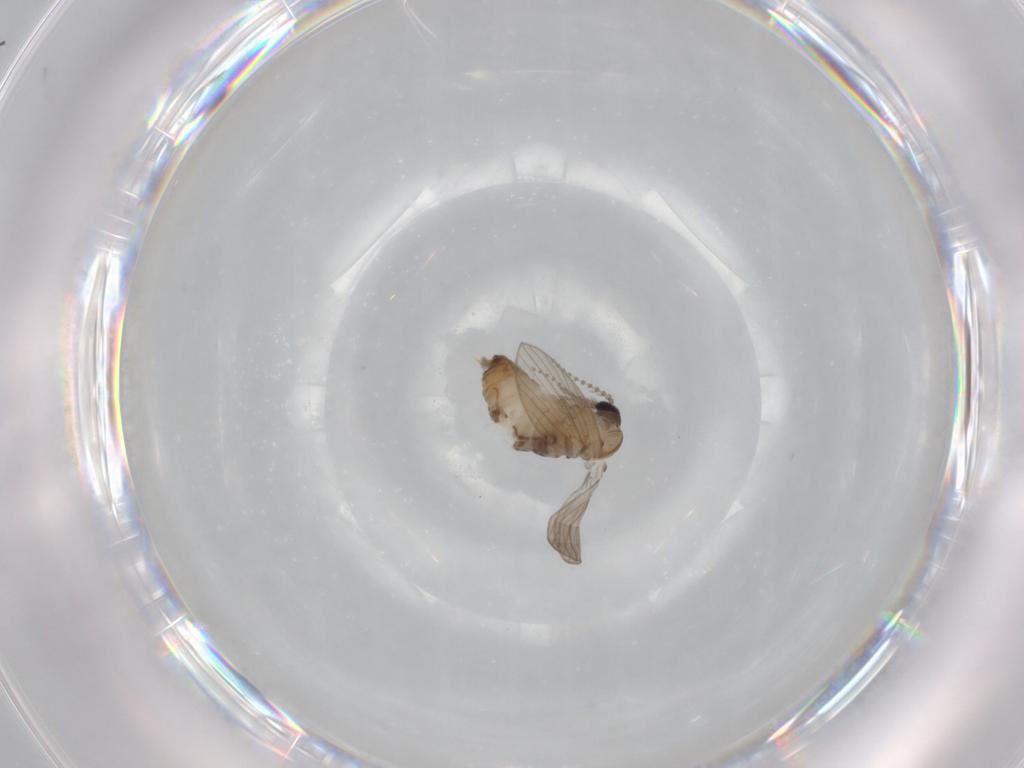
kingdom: Animalia
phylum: Arthropoda
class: Insecta
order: Diptera
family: Psychodidae
